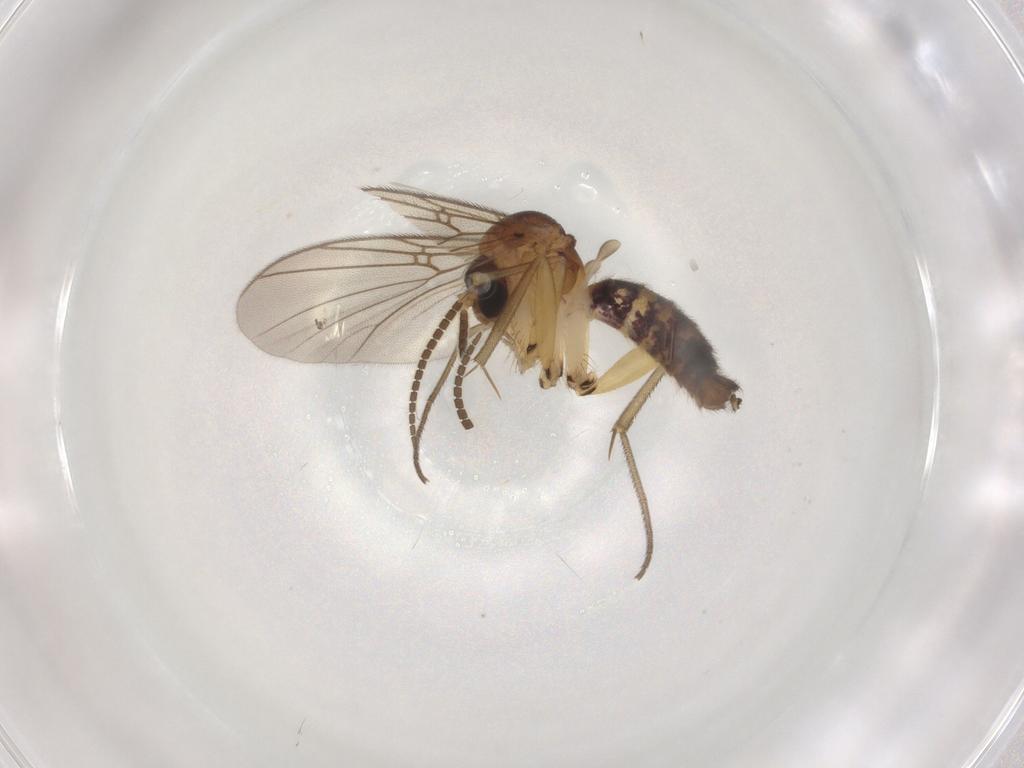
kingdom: Animalia
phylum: Arthropoda
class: Insecta
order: Diptera
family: Mycetophilidae
